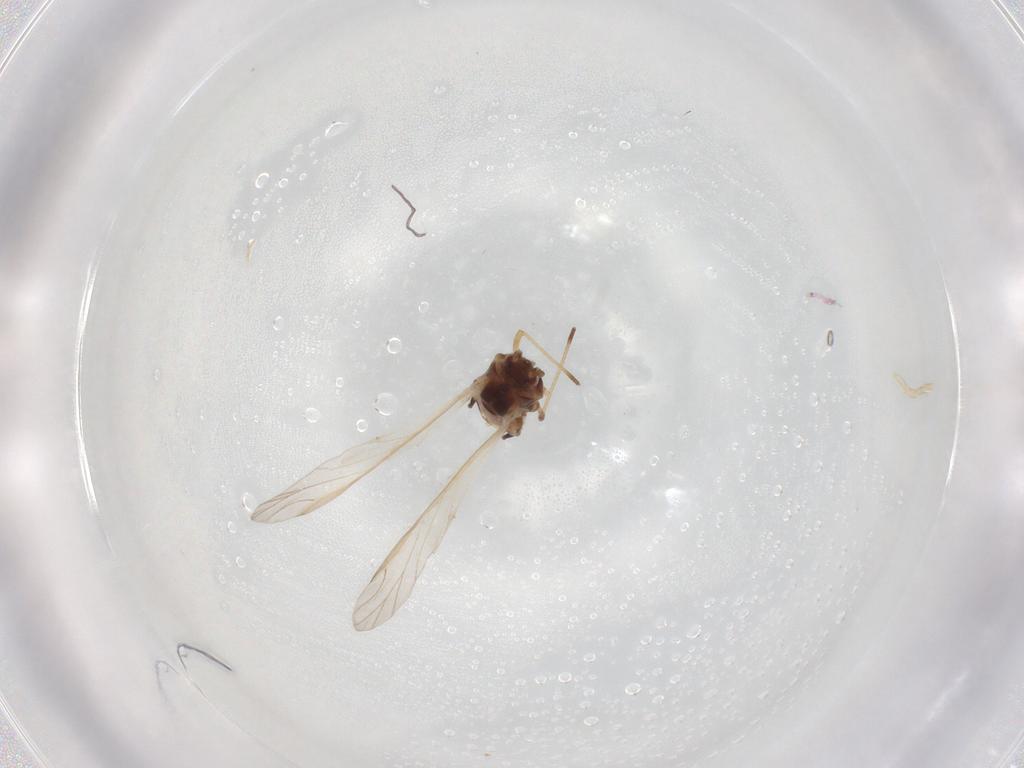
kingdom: Animalia
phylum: Arthropoda
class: Insecta
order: Hemiptera
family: Aphididae
